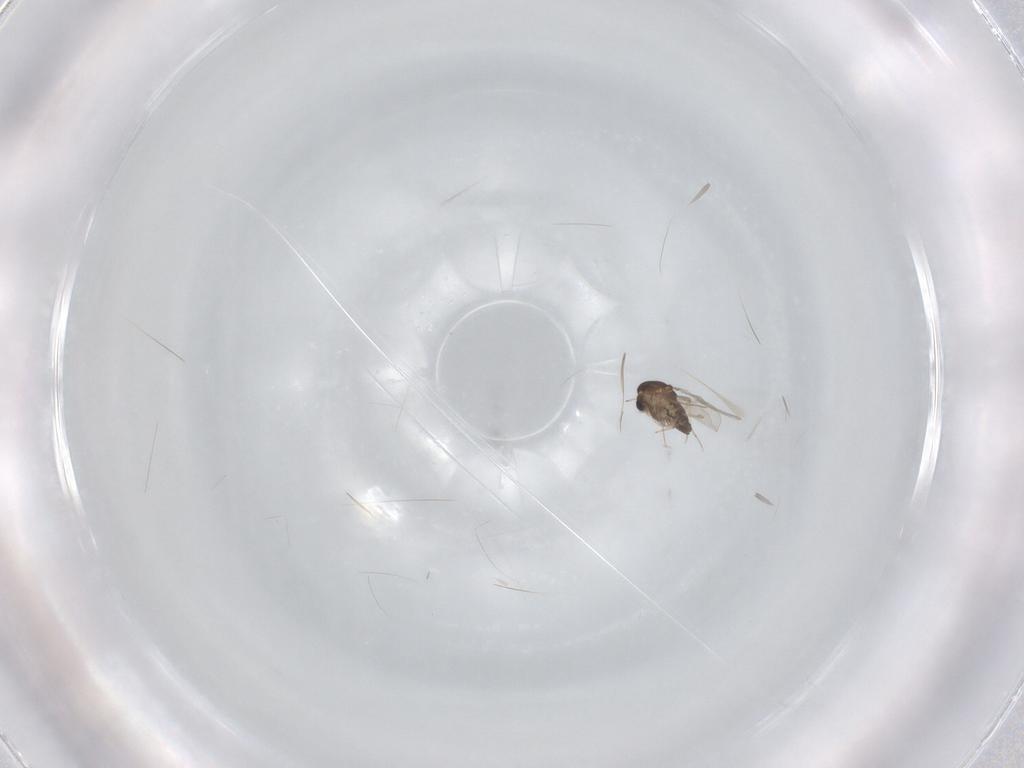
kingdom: Animalia
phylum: Arthropoda
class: Insecta
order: Diptera
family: Chironomidae
